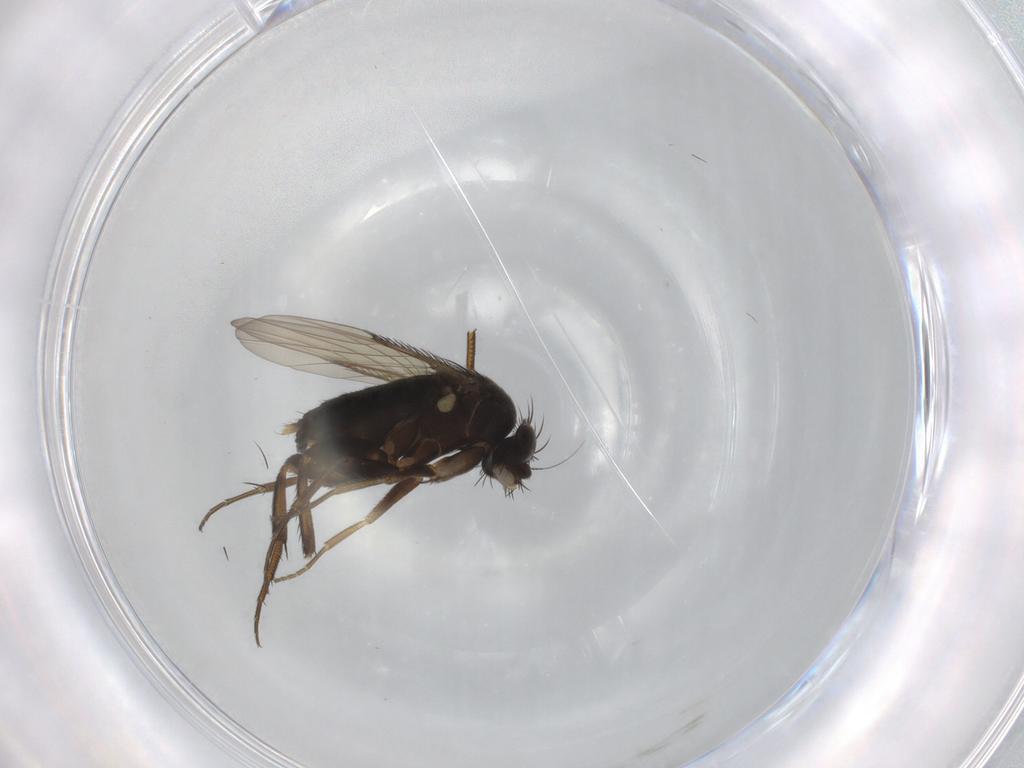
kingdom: Animalia
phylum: Arthropoda
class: Insecta
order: Diptera
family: Phoridae
